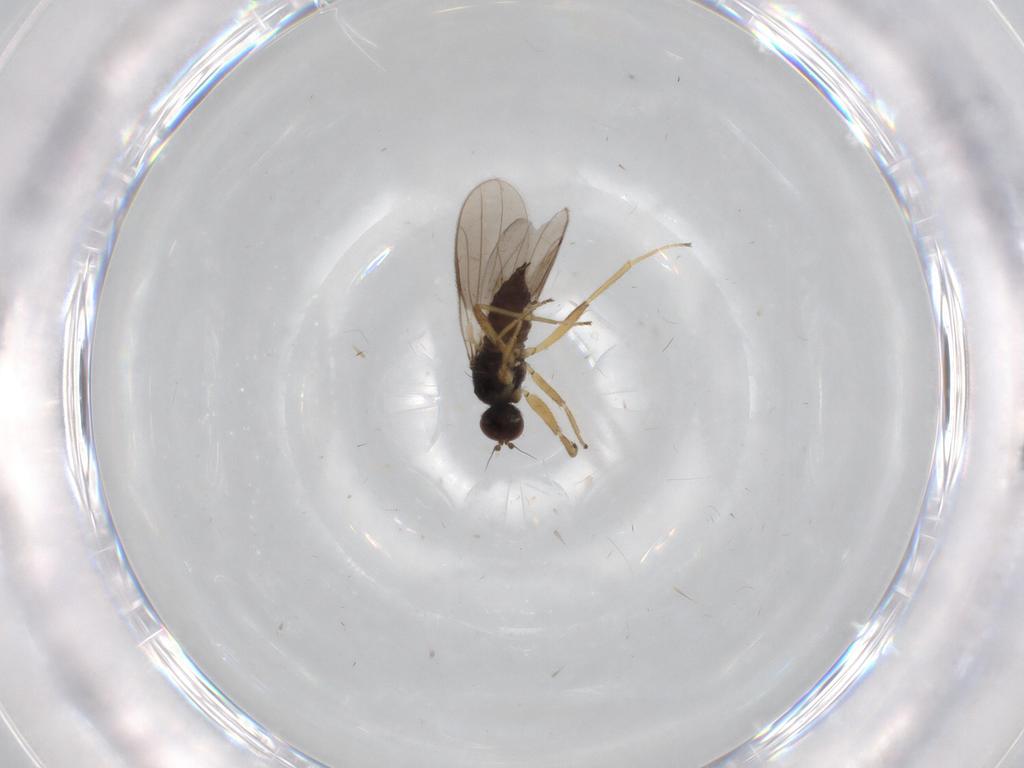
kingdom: Animalia
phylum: Arthropoda
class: Insecta
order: Diptera
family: Hybotidae
